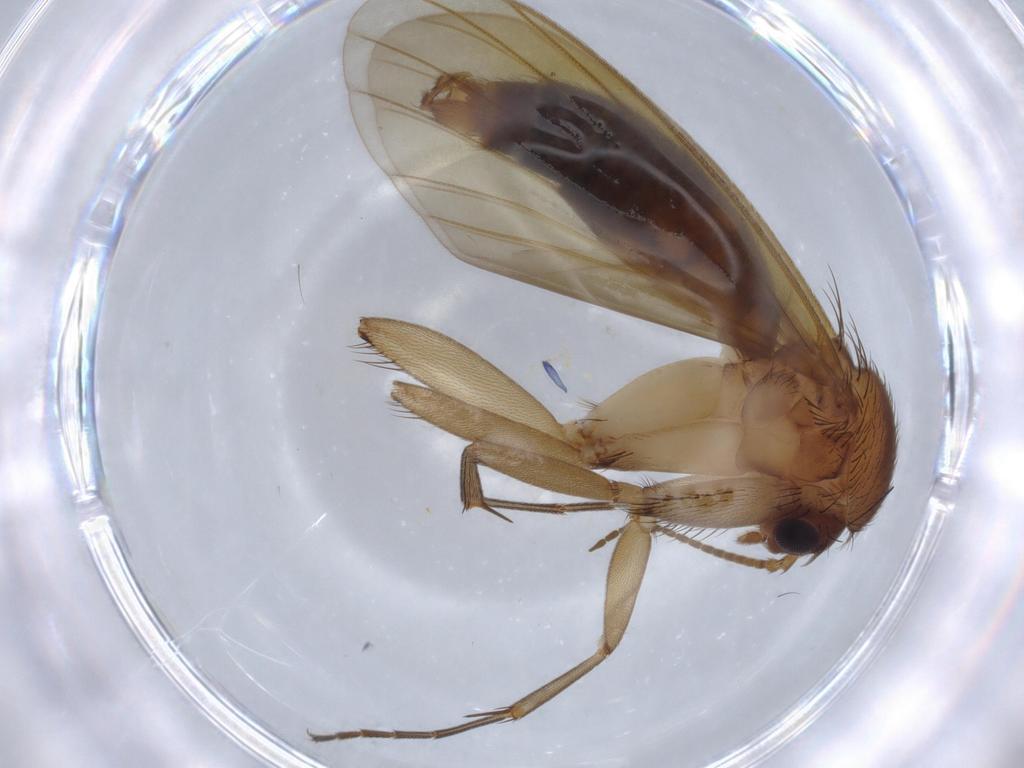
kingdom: Animalia
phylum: Arthropoda
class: Insecta
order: Diptera
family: Mycetophilidae
